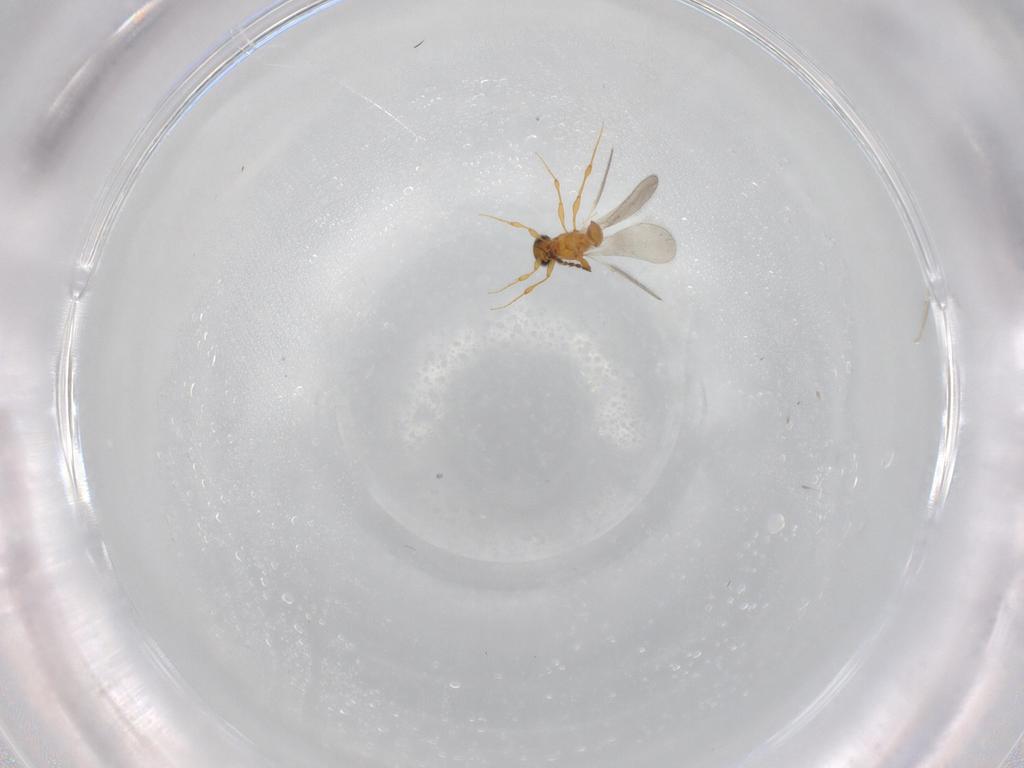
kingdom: Animalia
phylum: Arthropoda
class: Insecta
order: Hymenoptera
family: Platygastridae
